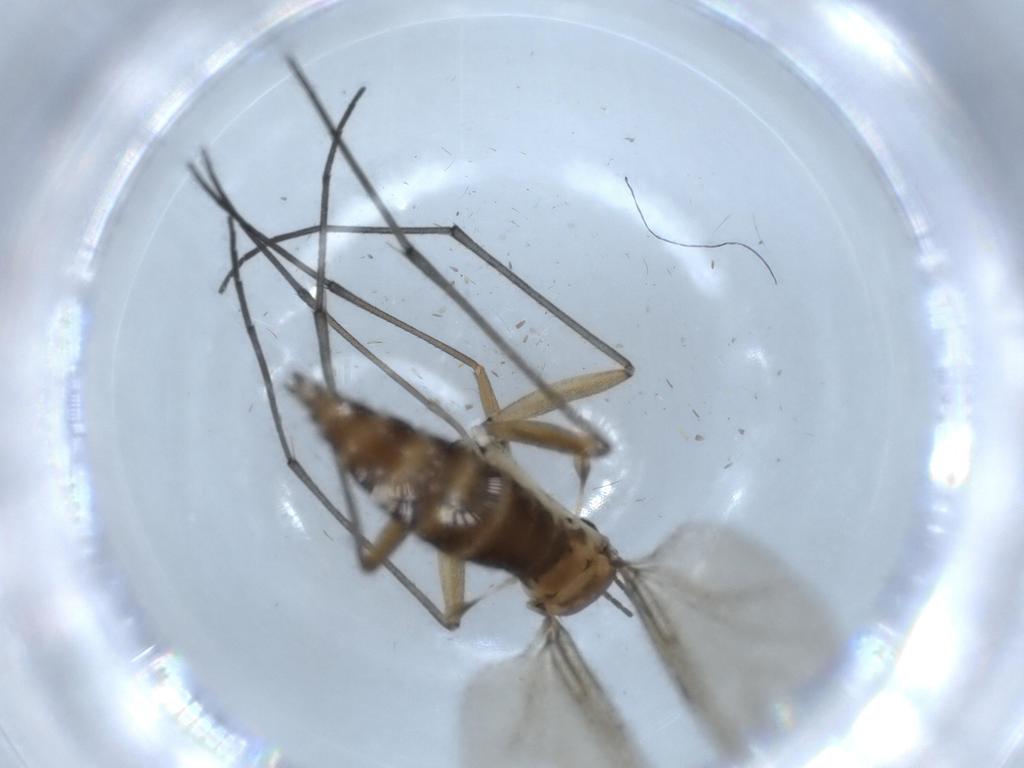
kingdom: Animalia
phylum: Arthropoda
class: Insecta
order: Diptera
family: Sciaridae
